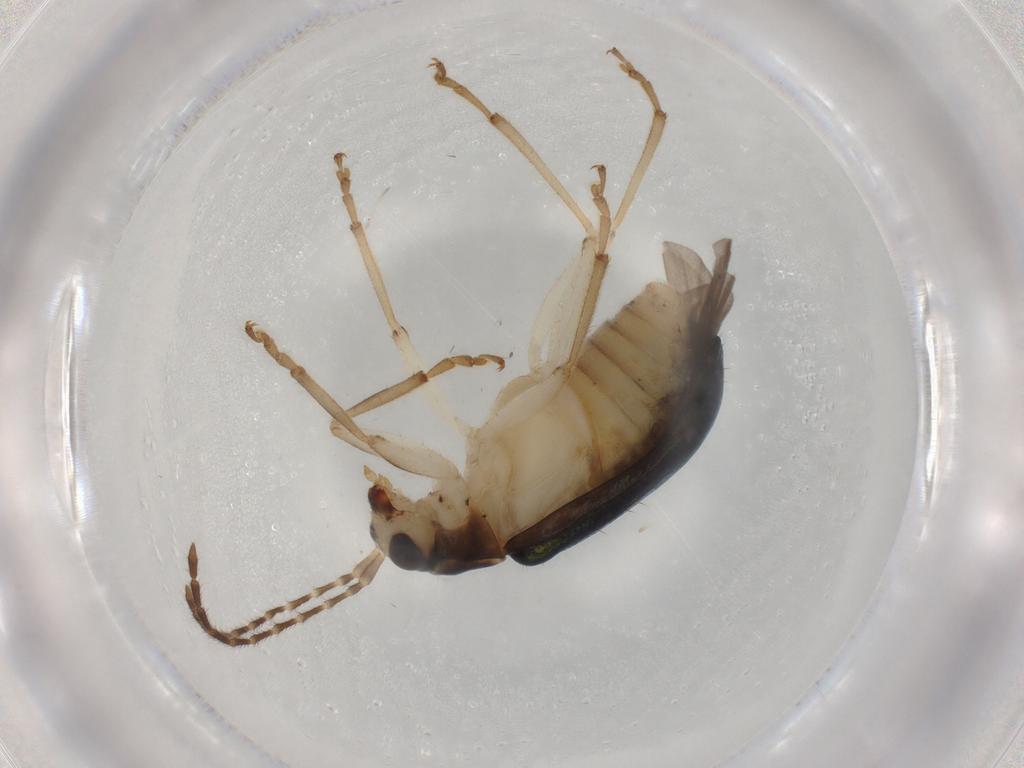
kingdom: Animalia
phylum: Arthropoda
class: Insecta
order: Coleoptera
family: Chrysomelidae
